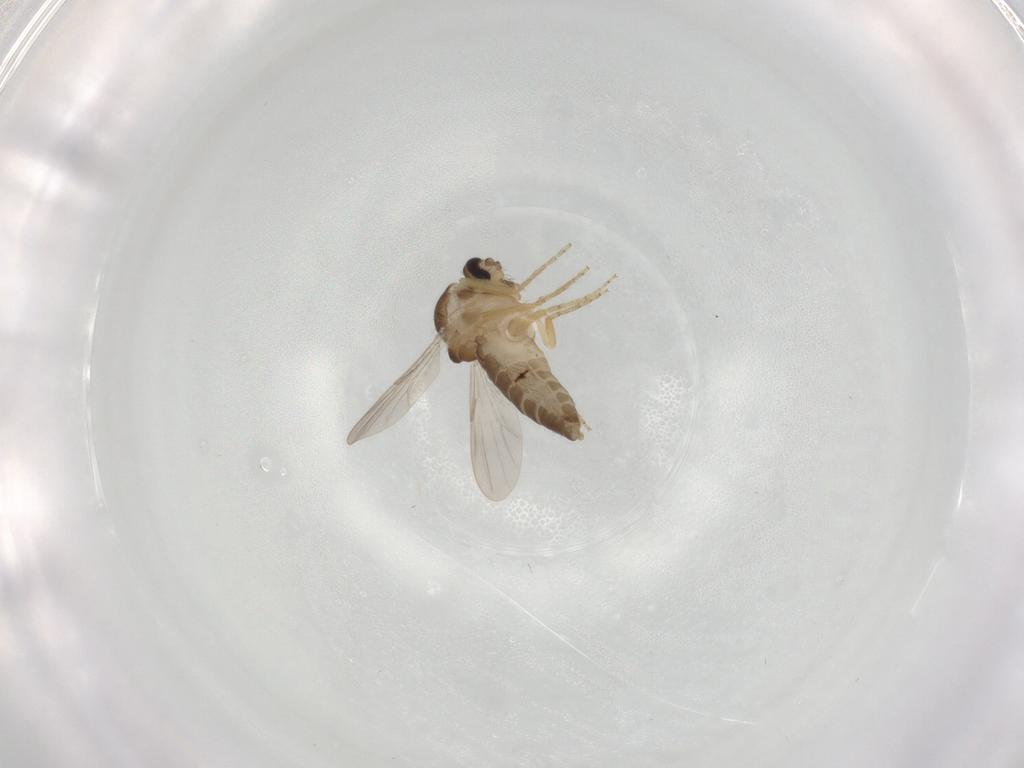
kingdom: Animalia
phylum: Arthropoda
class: Insecta
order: Diptera
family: Ceratopogonidae
